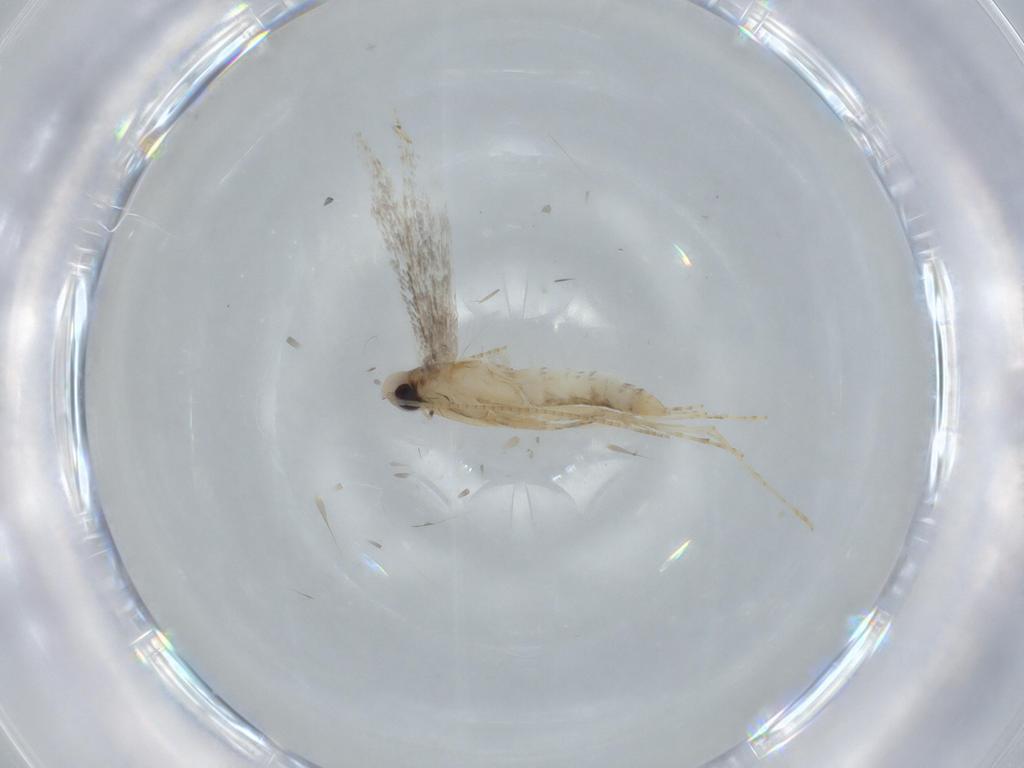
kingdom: Animalia
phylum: Arthropoda
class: Insecta
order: Lepidoptera
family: Gracillariidae
